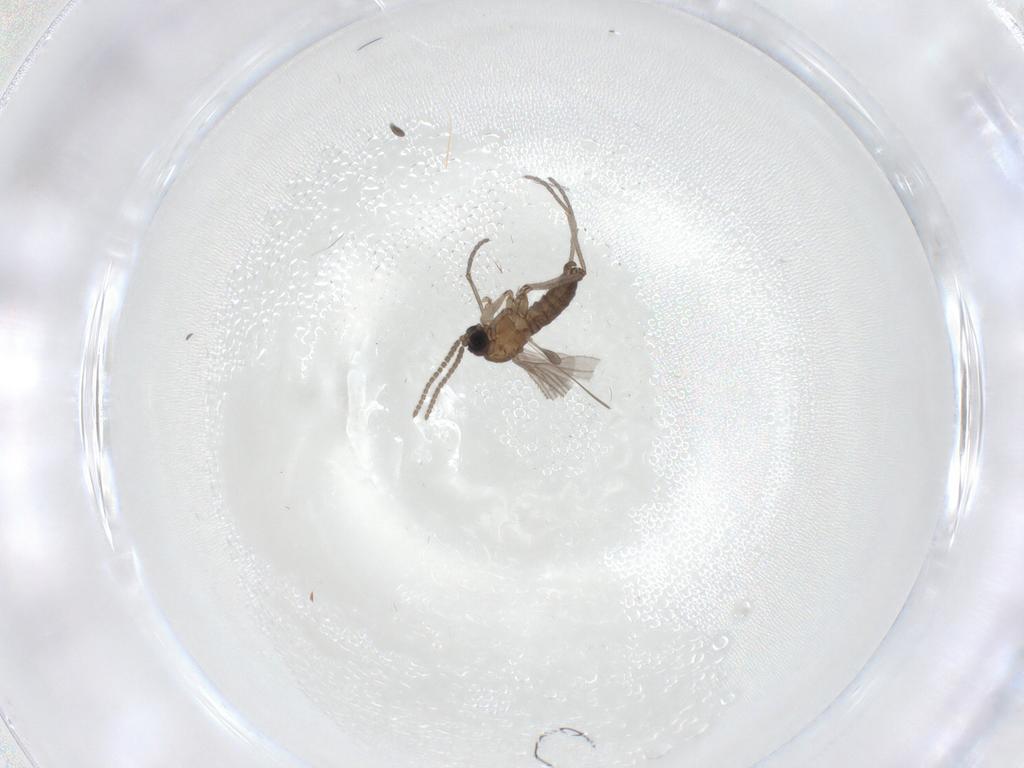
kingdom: Animalia
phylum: Arthropoda
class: Insecta
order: Diptera
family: Sciaridae
